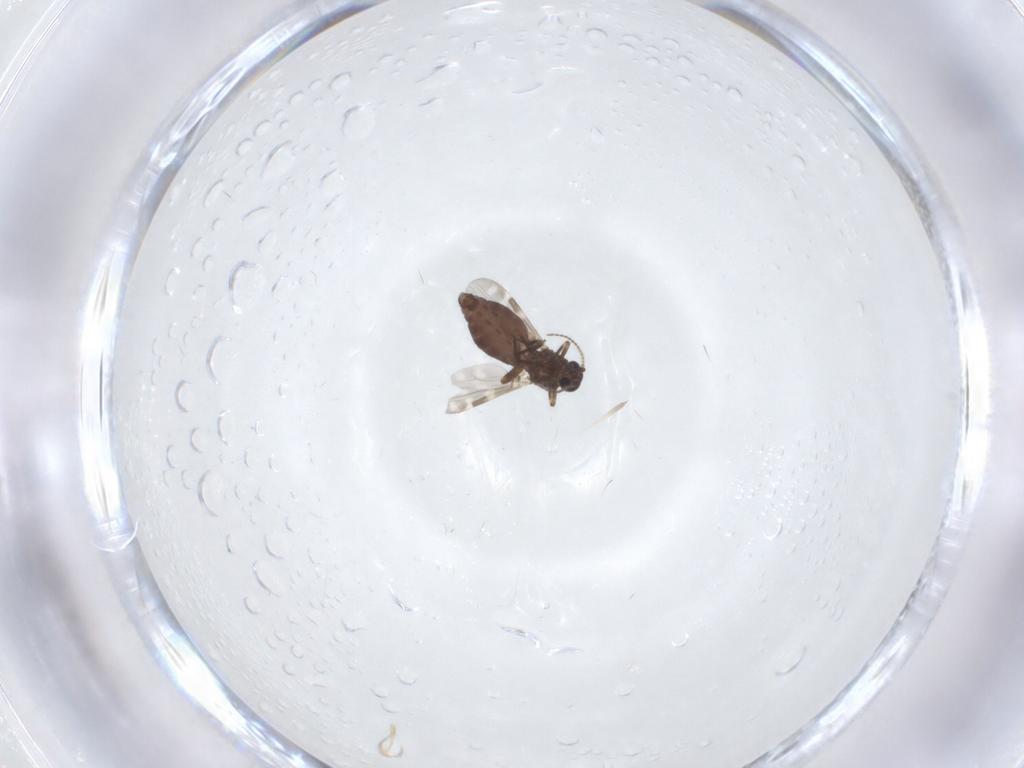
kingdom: Animalia
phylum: Arthropoda
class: Insecta
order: Diptera
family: Ceratopogonidae
